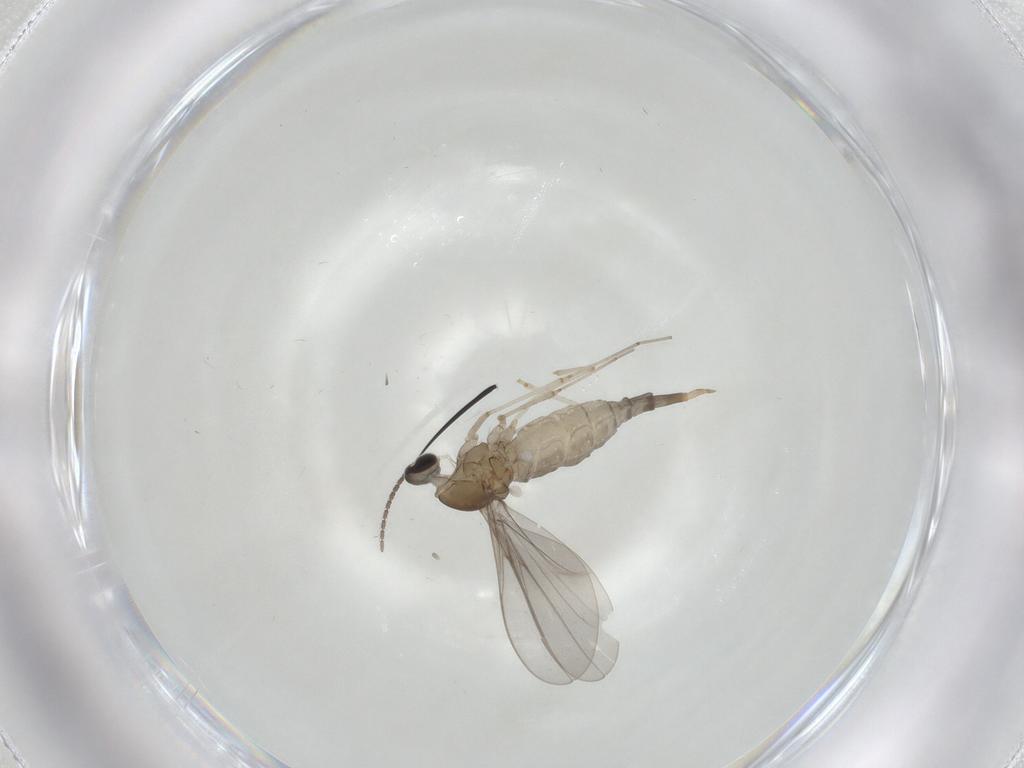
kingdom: Animalia
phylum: Arthropoda
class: Insecta
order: Diptera
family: Cecidomyiidae
